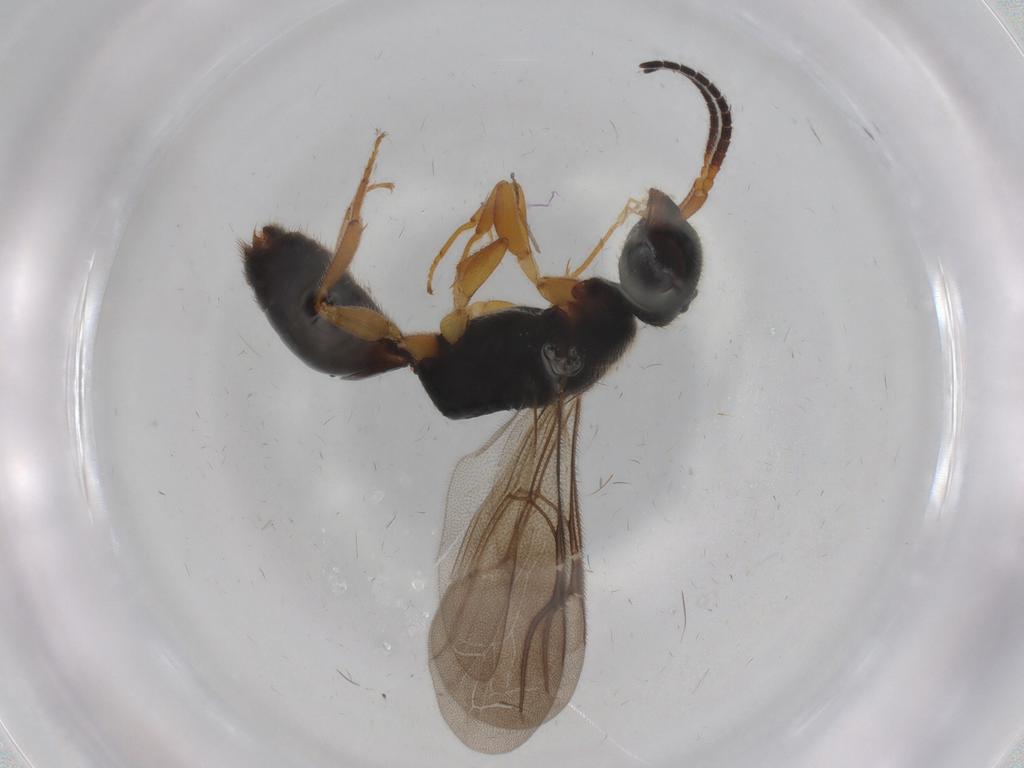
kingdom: Animalia
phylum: Arthropoda
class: Insecta
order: Hymenoptera
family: Bethylidae
